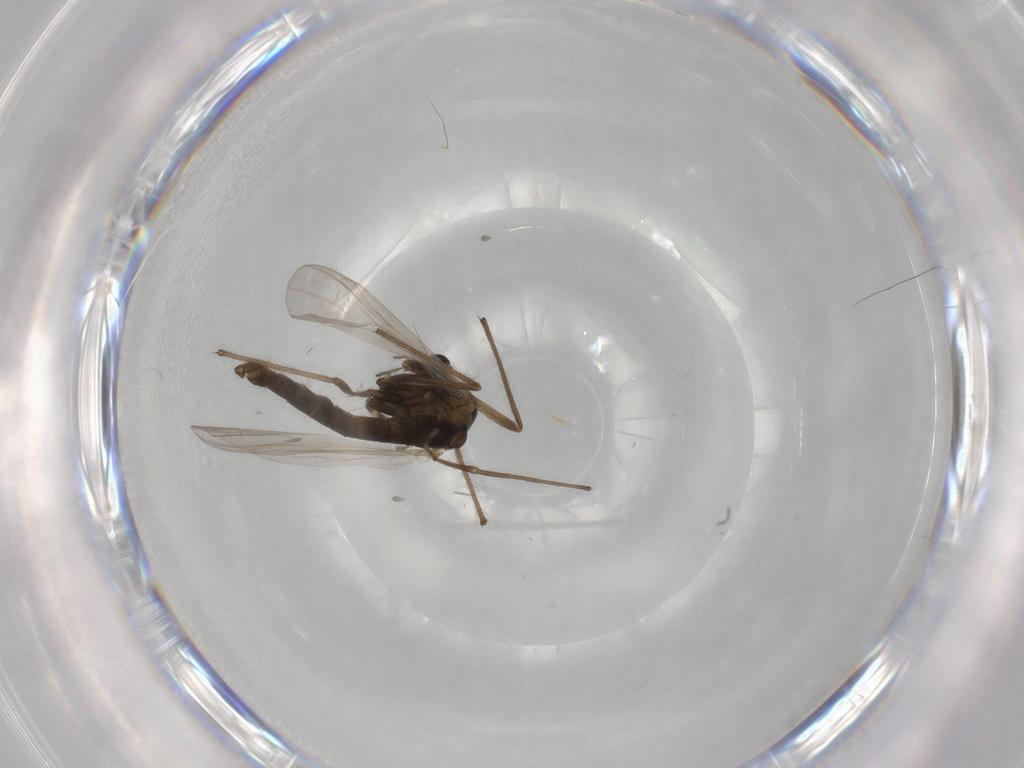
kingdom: Animalia
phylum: Arthropoda
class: Insecta
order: Diptera
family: Chironomidae
